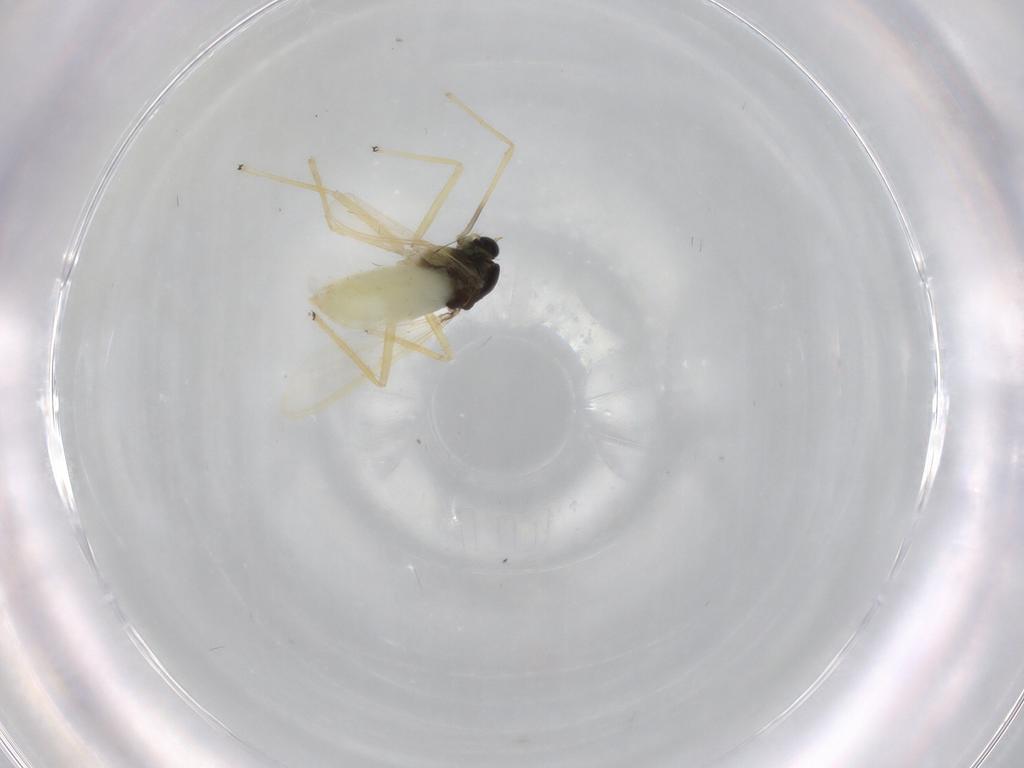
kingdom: Animalia
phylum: Arthropoda
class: Insecta
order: Diptera
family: Chironomidae
